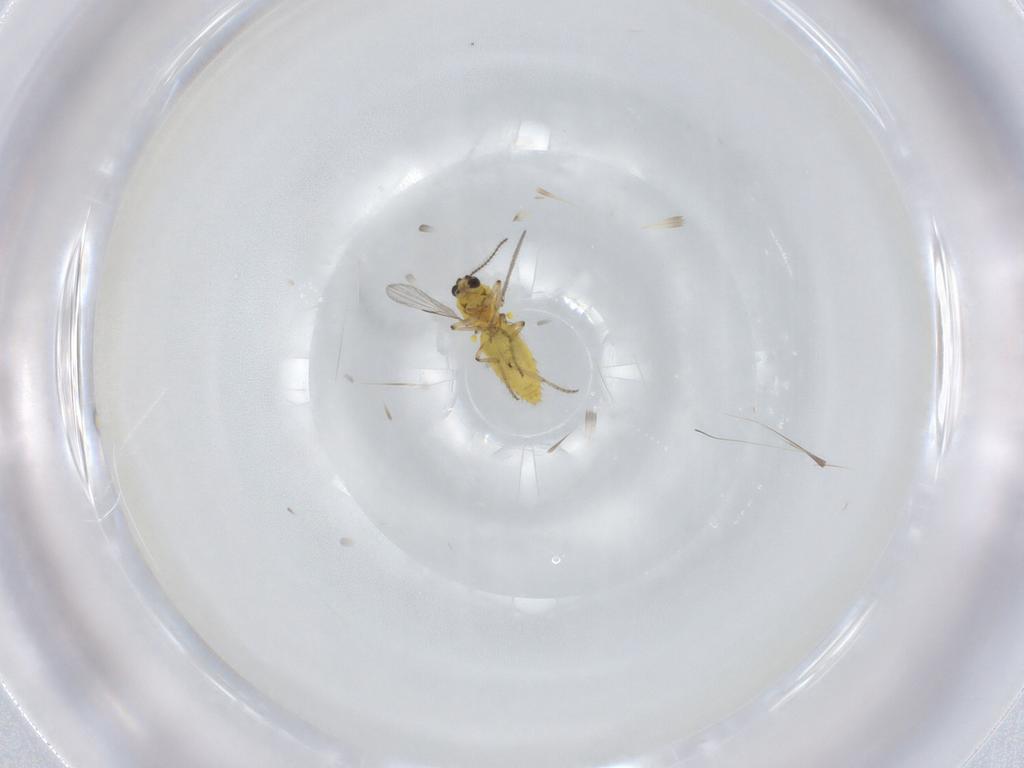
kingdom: Animalia
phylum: Arthropoda
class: Insecta
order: Diptera
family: Ceratopogonidae
